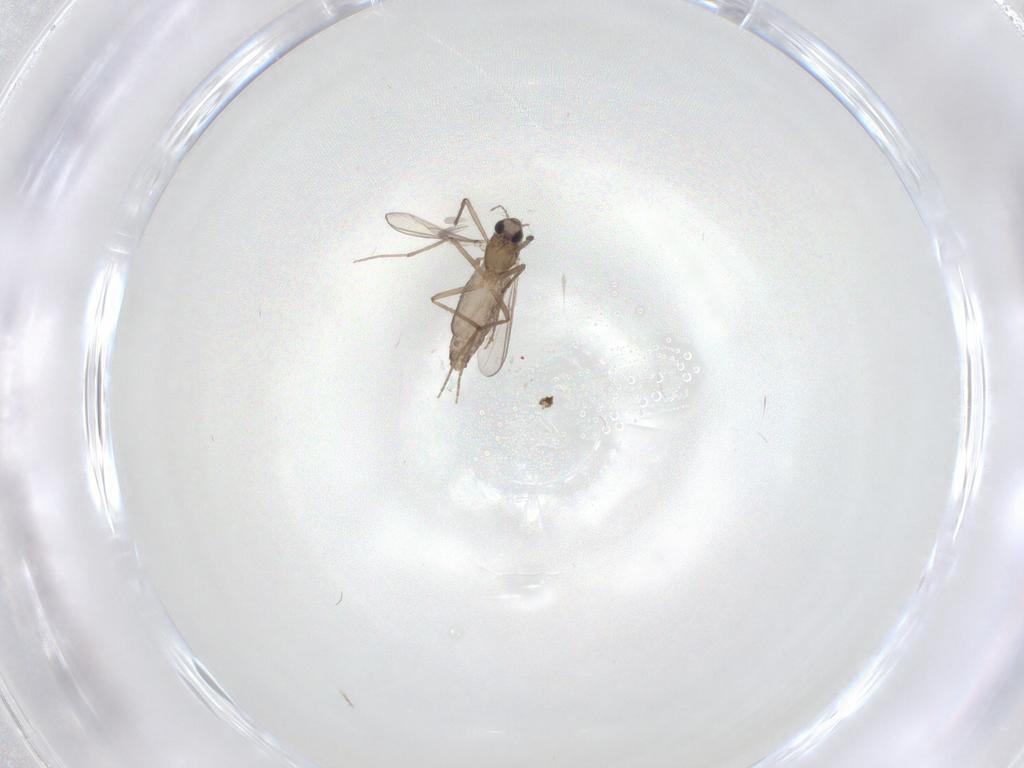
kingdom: Animalia
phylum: Arthropoda
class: Insecta
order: Diptera
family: Chironomidae
